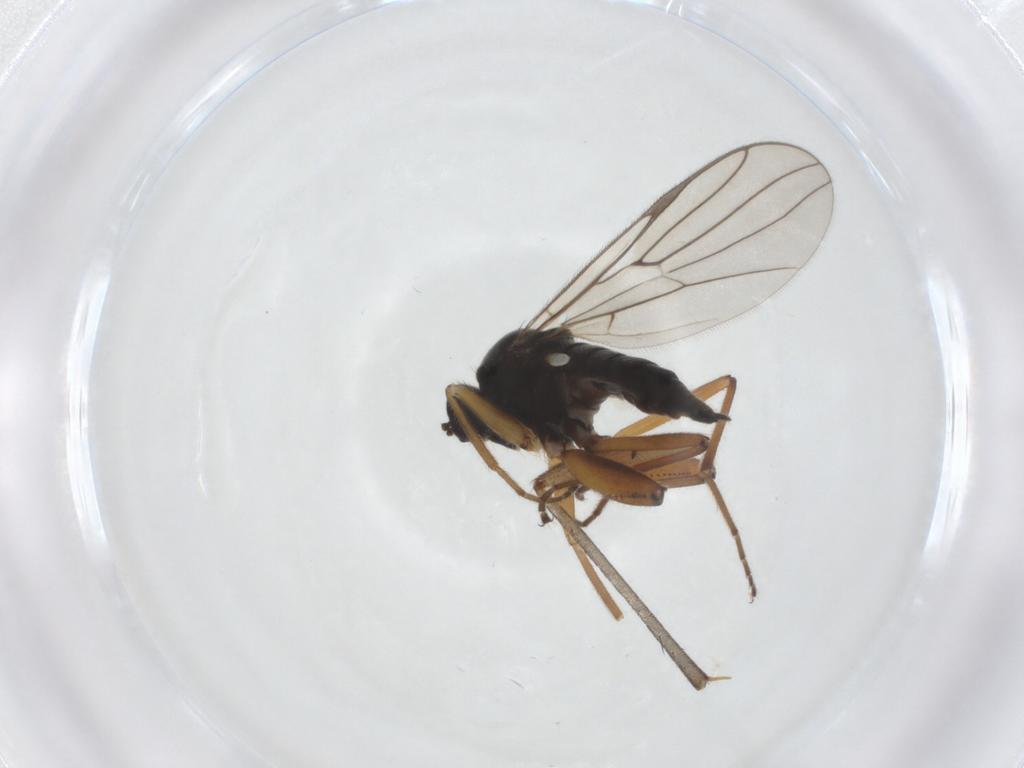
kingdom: Animalia
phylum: Arthropoda
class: Insecta
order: Diptera
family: Hybotidae
